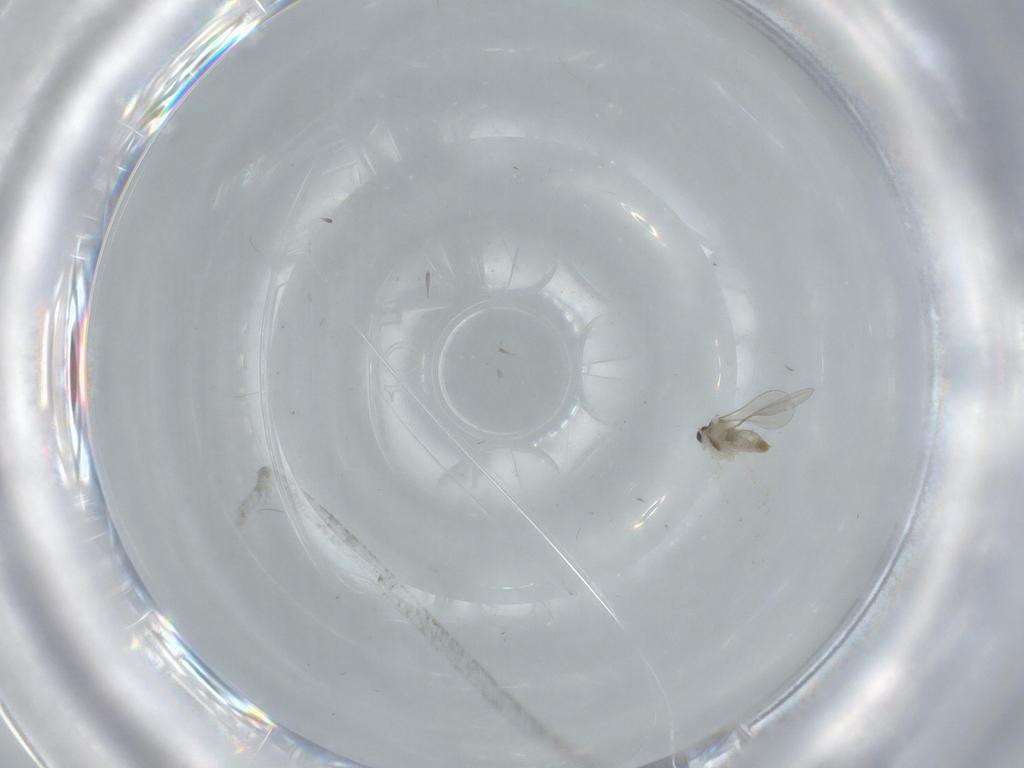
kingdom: Animalia
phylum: Arthropoda
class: Insecta
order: Diptera
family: Mycetophilidae
